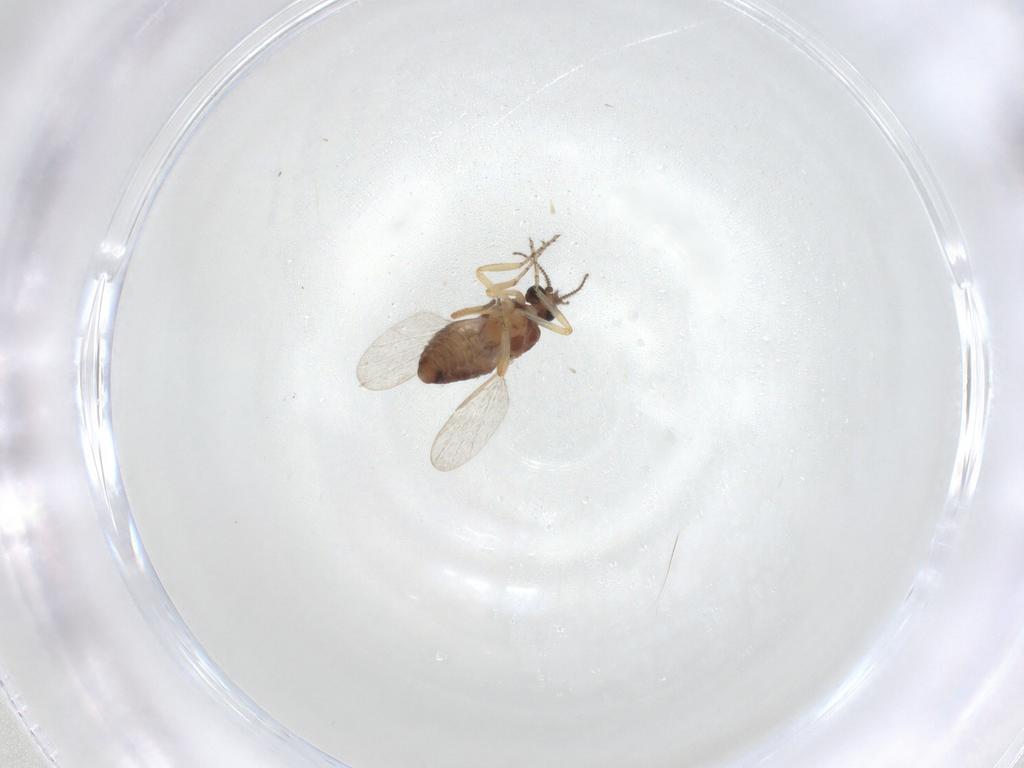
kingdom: Animalia
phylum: Arthropoda
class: Insecta
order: Diptera
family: Ceratopogonidae
